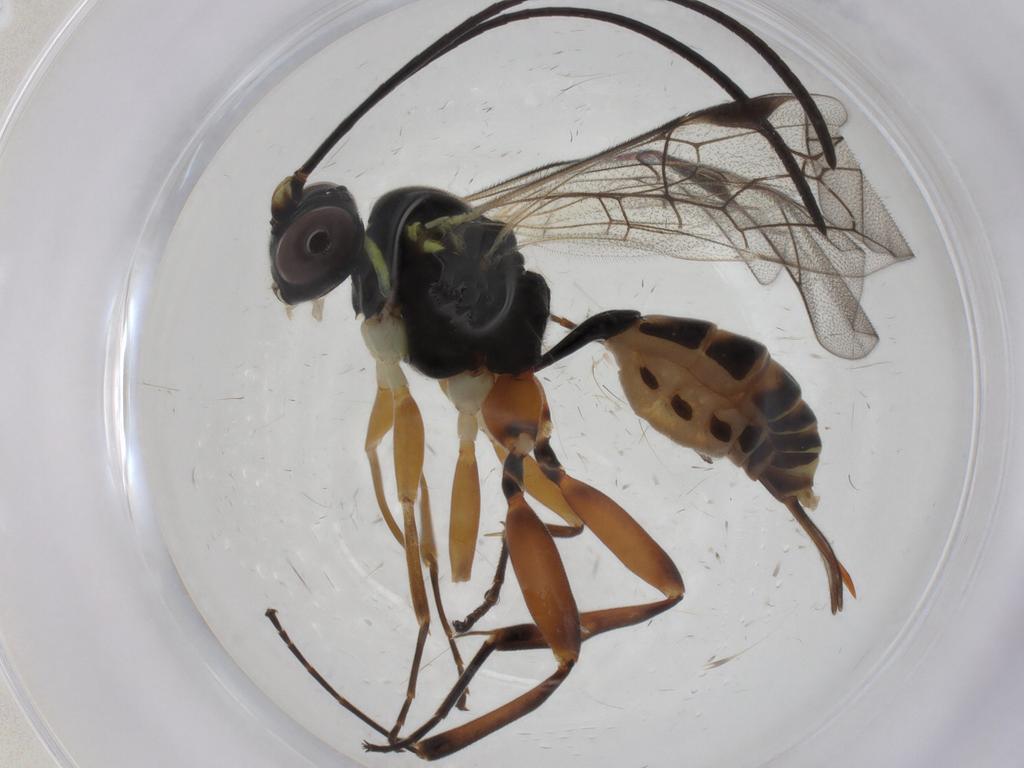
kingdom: Animalia
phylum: Arthropoda
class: Insecta
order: Hymenoptera
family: Ichneumonidae
